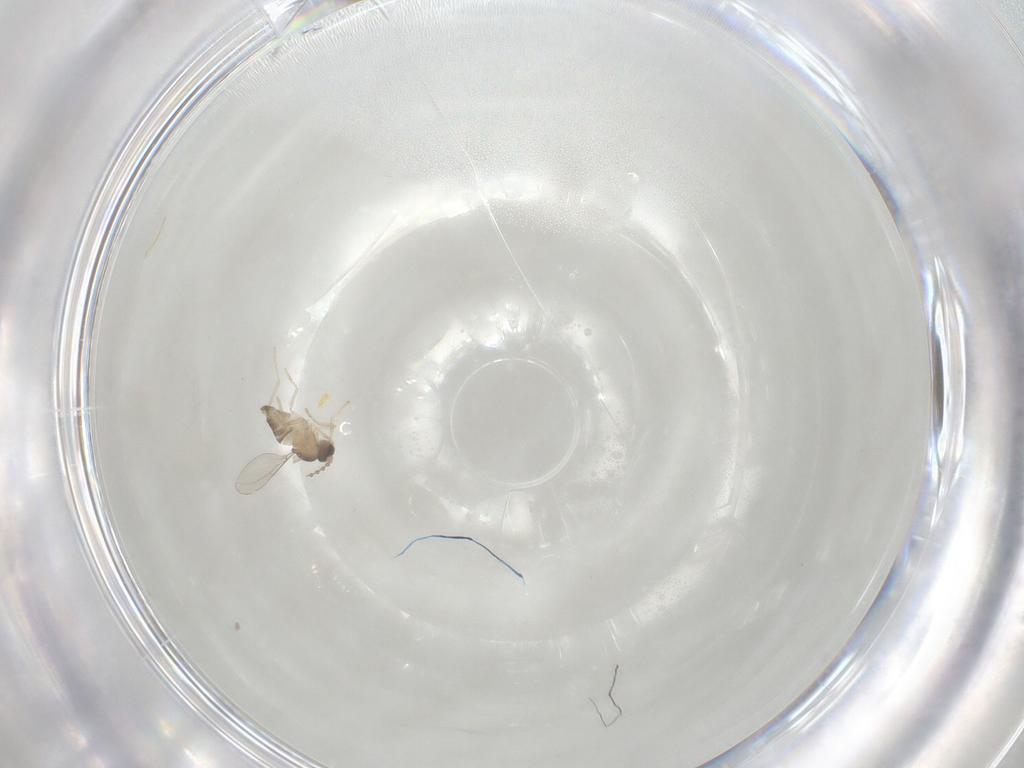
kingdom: Animalia
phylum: Arthropoda
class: Insecta
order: Diptera
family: Cecidomyiidae
